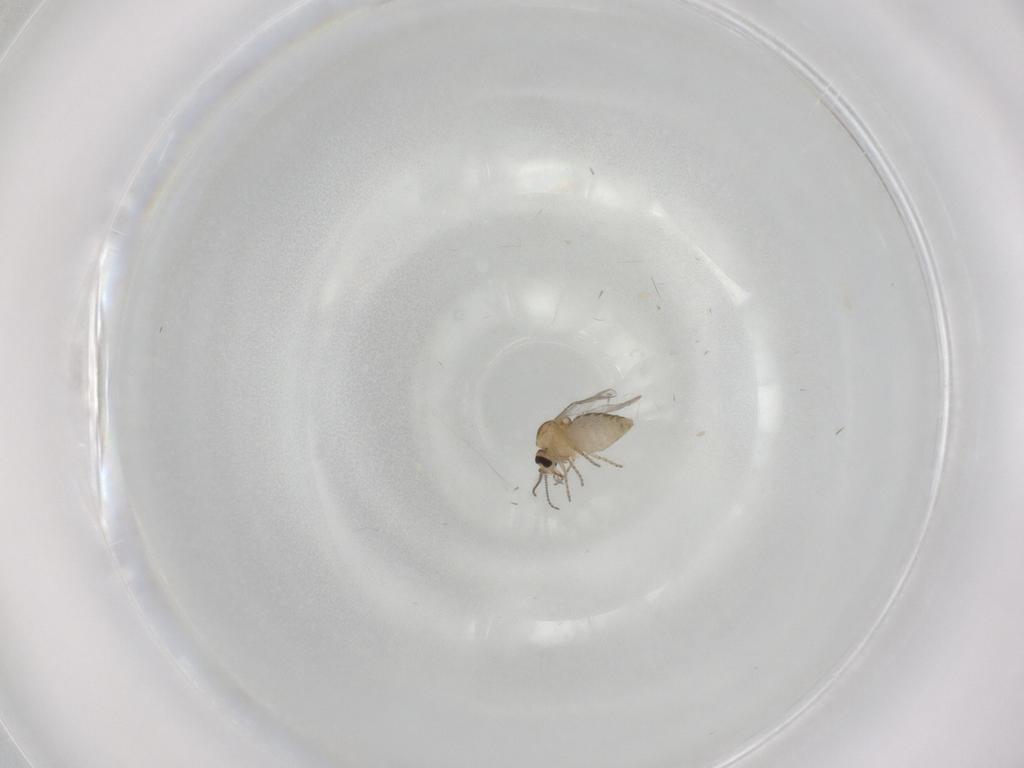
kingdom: Animalia
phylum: Arthropoda
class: Insecta
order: Diptera
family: Ceratopogonidae
